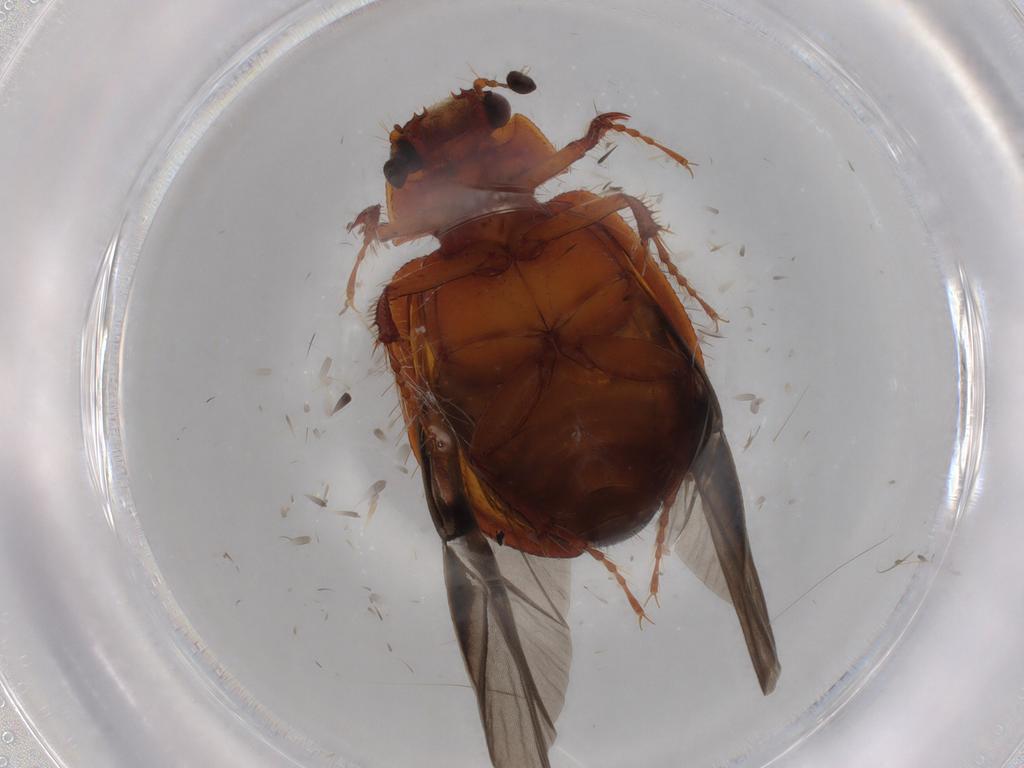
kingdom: Animalia
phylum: Arthropoda
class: Insecta
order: Coleoptera
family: Hybosoridae
